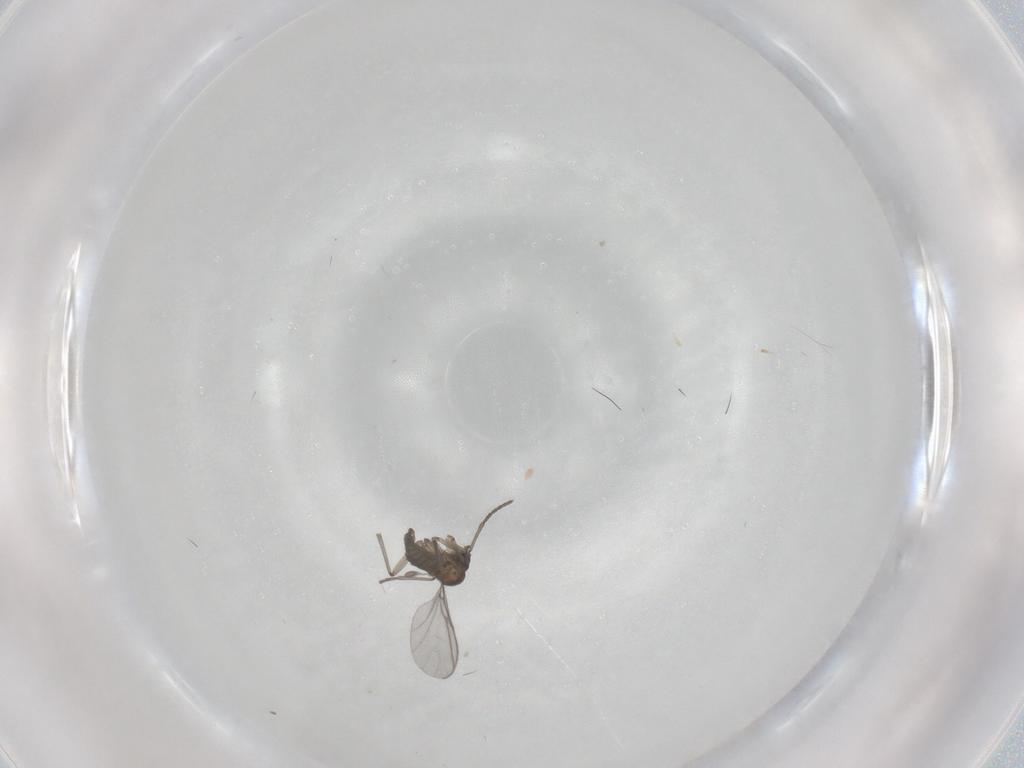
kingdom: Animalia
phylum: Arthropoda
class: Insecta
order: Diptera
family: Sciaridae
